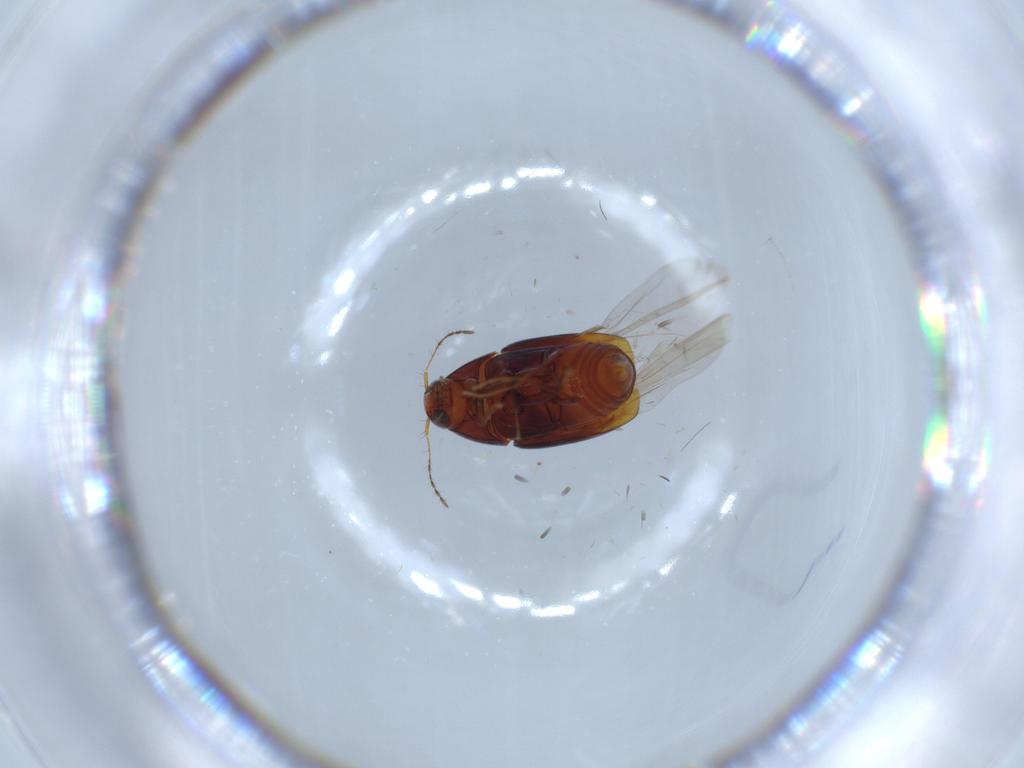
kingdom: Animalia
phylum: Arthropoda
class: Insecta
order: Coleoptera
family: Staphylinidae
